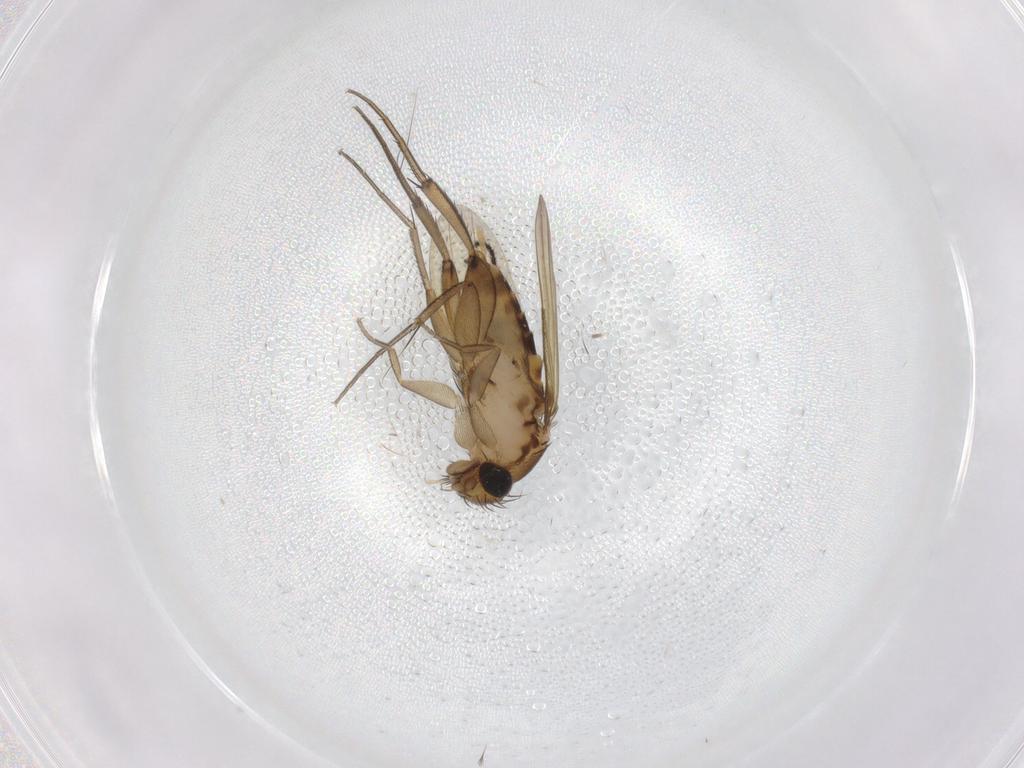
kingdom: Animalia
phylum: Arthropoda
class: Insecta
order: Diptera
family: Phoridae
